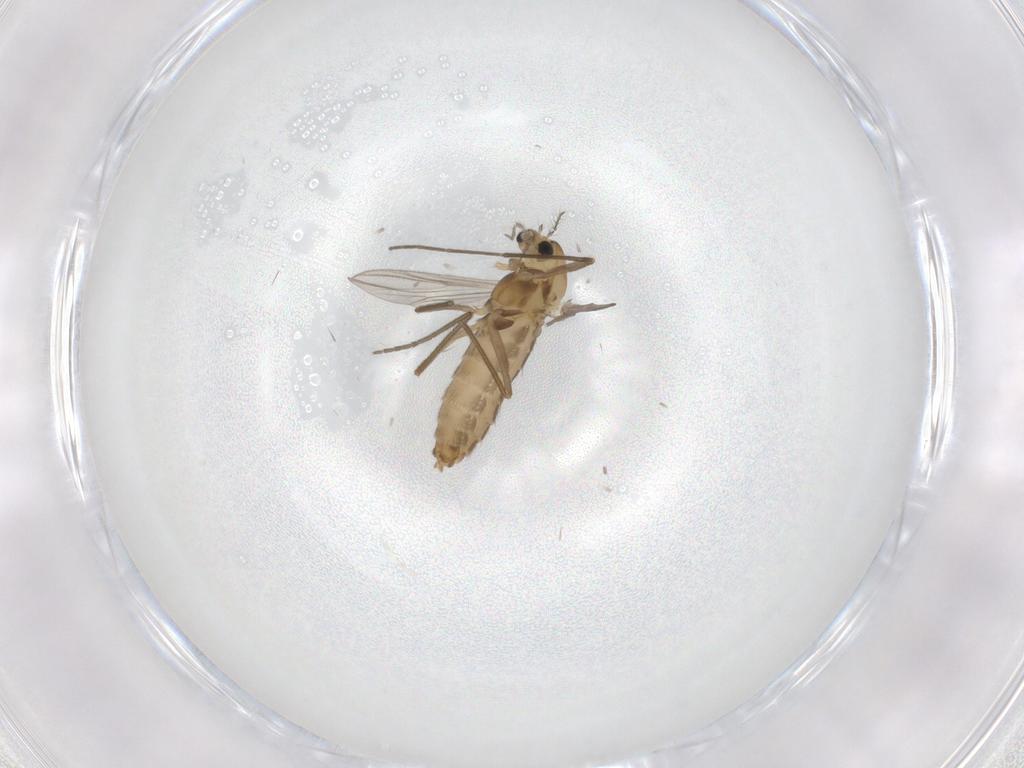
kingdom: Animalia
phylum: Arthropoda
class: Insecta
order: Diptera
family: Chironomidae
